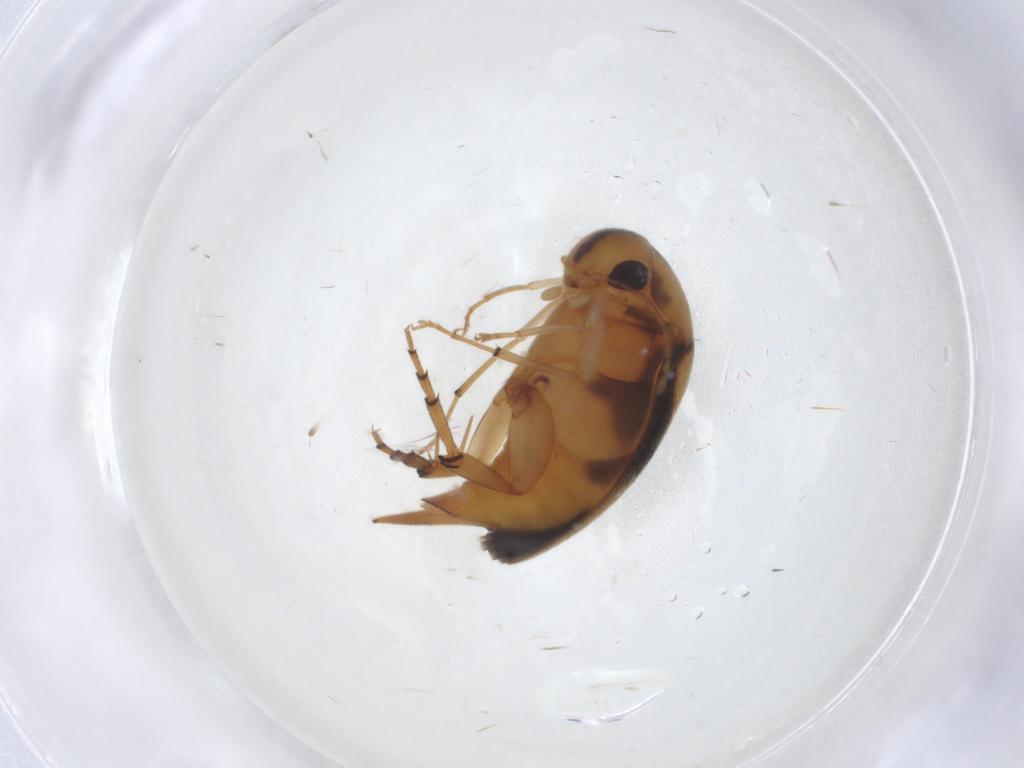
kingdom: Animalia
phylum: Arthropoda
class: Insecta
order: Coleoptera
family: Mordellidae
